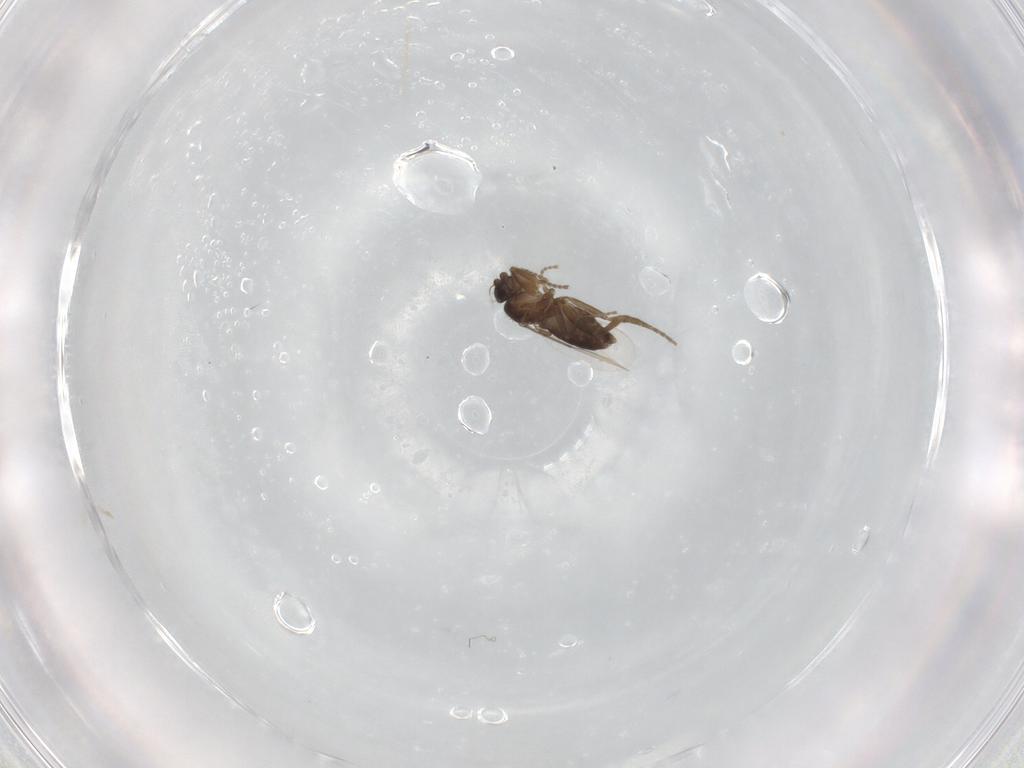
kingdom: Animalia
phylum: Arthropoda
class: Insecta
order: Diptera
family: Phoridae
